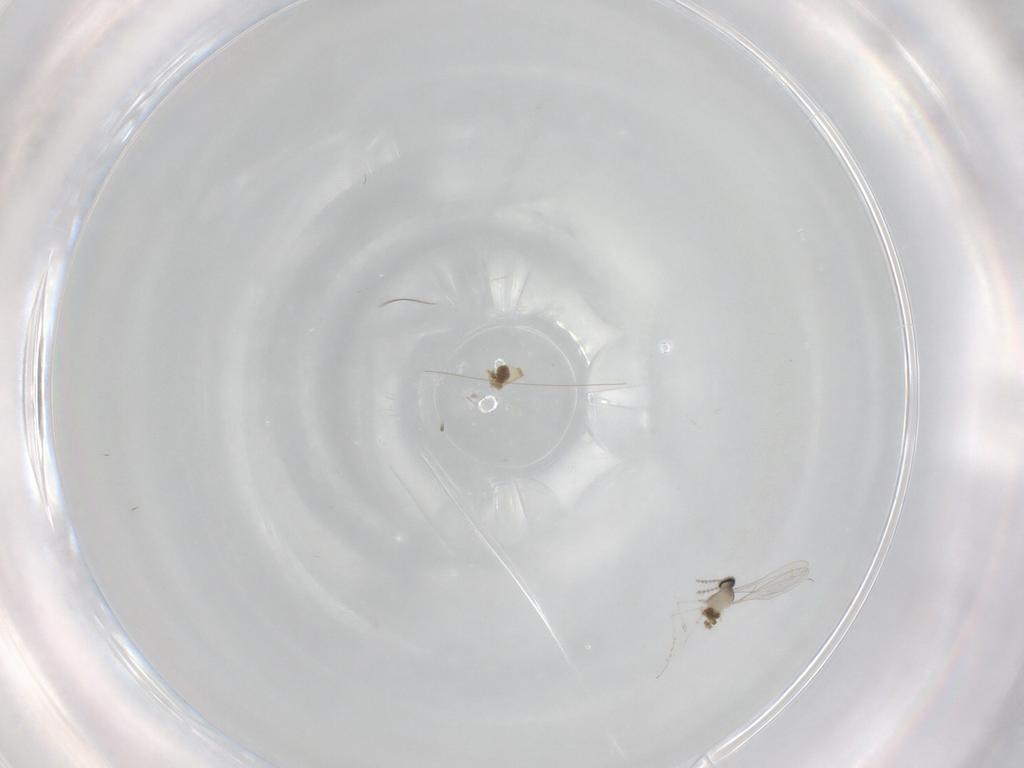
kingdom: Animalia
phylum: Arthropoda
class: Insecta
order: Diptera
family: Cecidomyiidae
